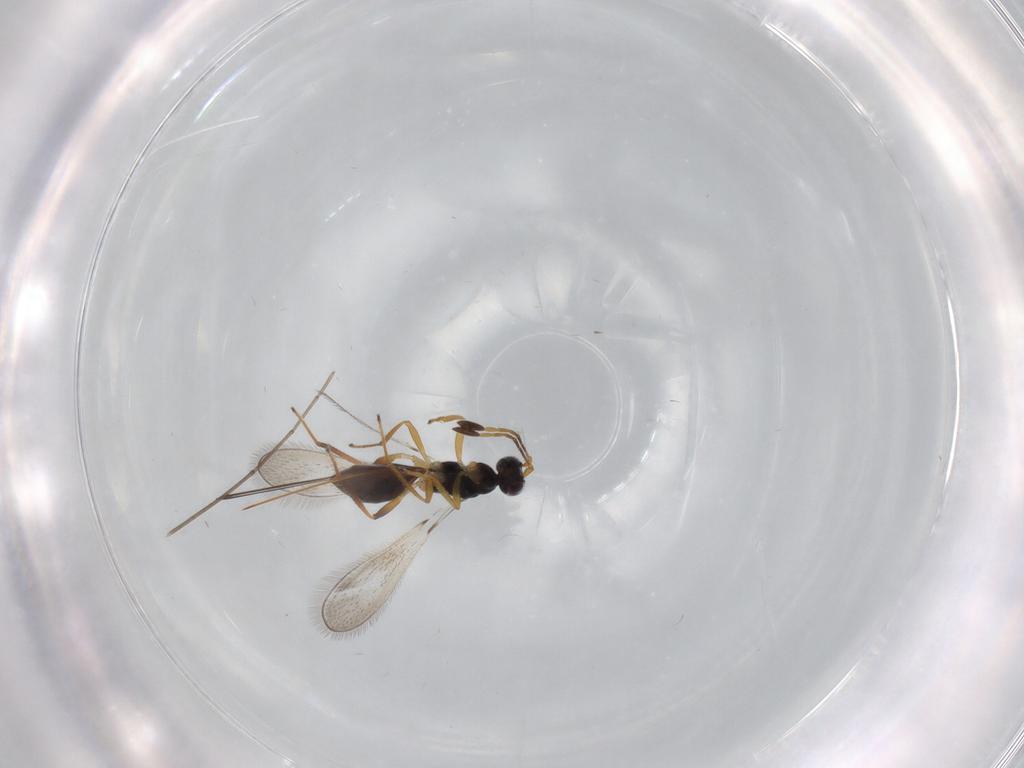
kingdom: Animalia
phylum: Arthropoda
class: Insecta
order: Hymenoptera
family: Mymaridae
